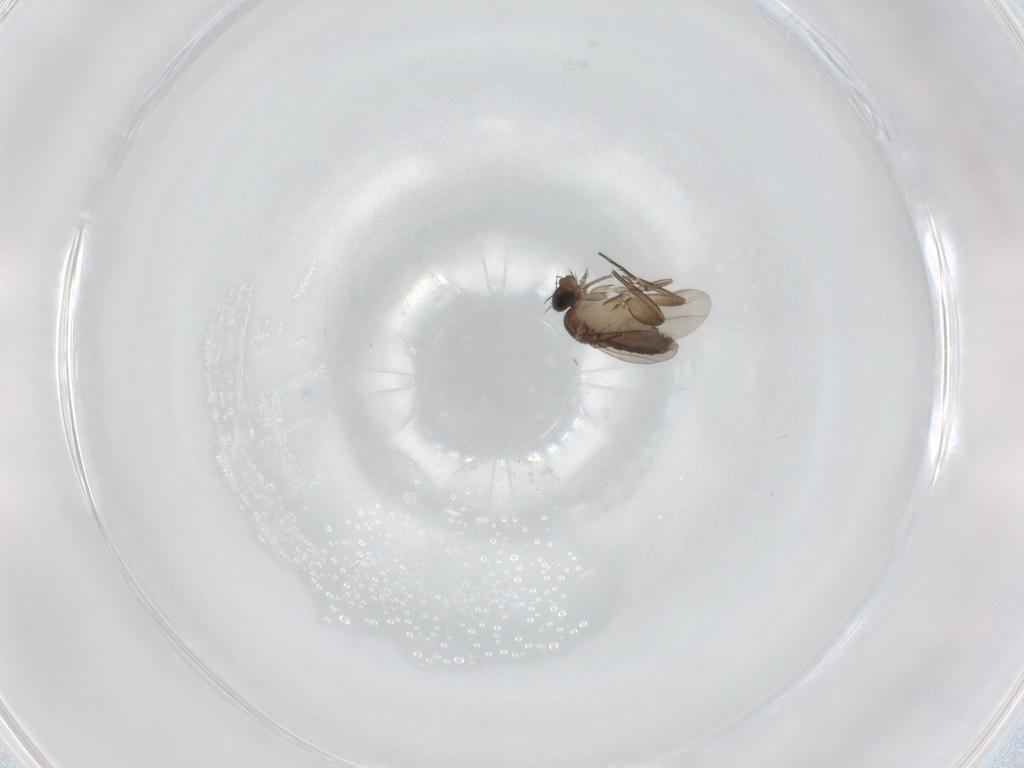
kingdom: Animalia
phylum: Arthropoda
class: Insecta
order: Diptera
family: Phoridae
